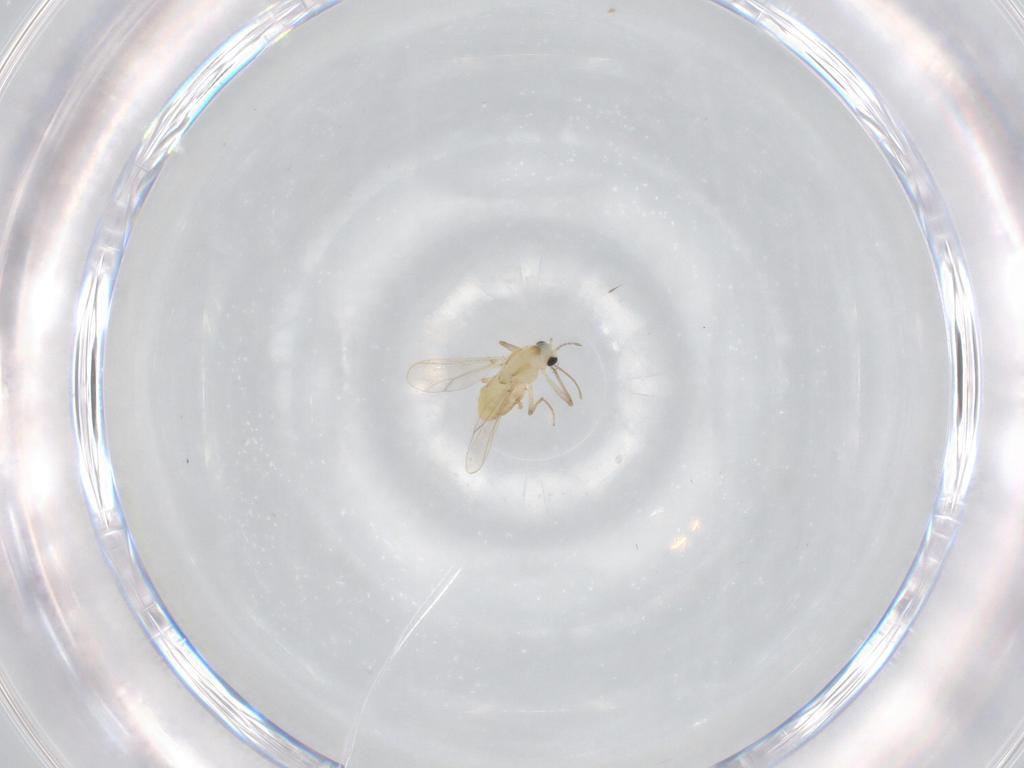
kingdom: Animalia
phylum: Arthropoda
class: Insecta
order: Diptera
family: Chironomidae
